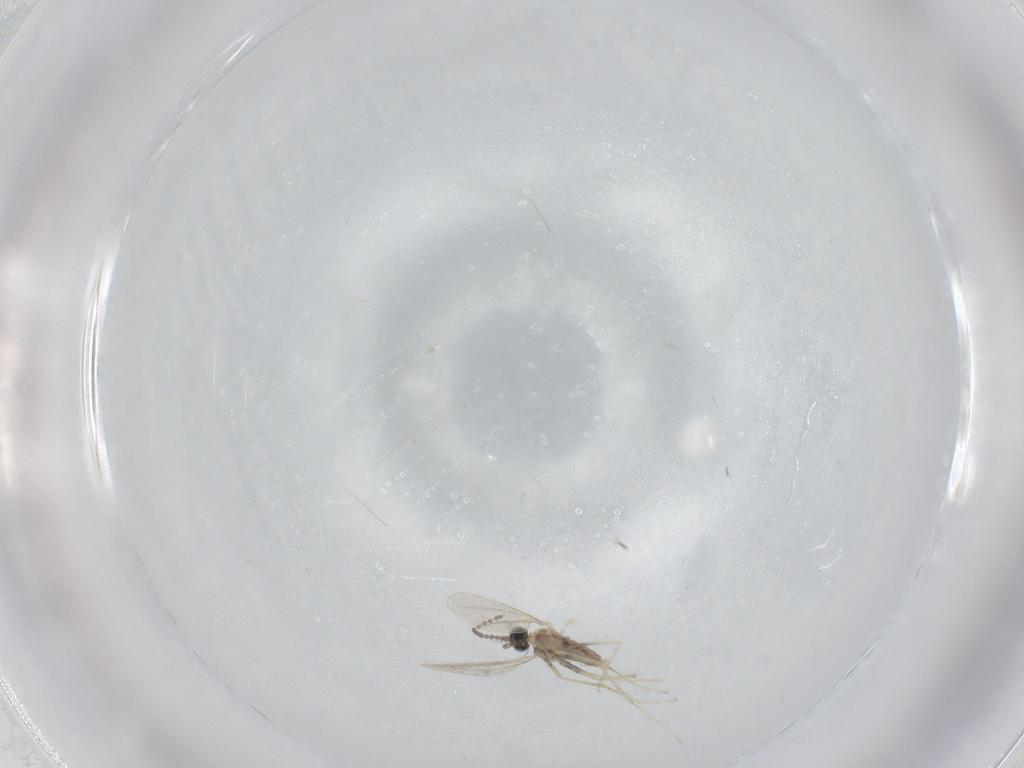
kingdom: Animalia
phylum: Arthropoda
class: Insecta
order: Diptera
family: Cecidomyiidae
